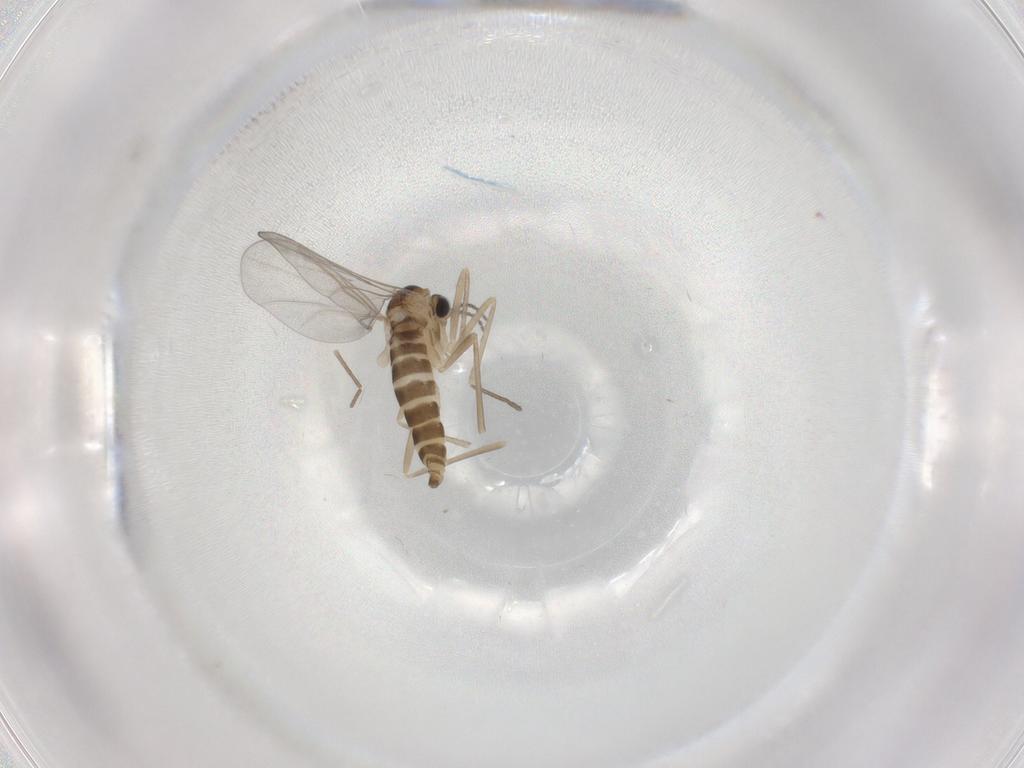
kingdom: Animalia
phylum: Arthropoda
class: Insecta
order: Diptera
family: Cecidomyiidae
